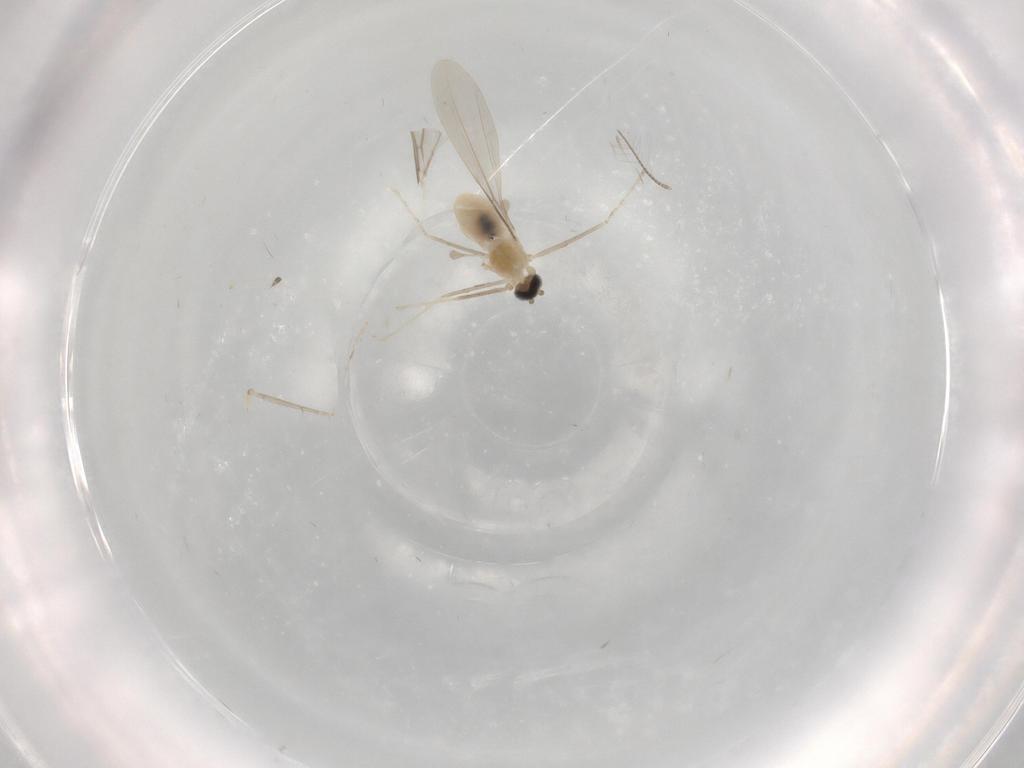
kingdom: Animalia
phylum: Arthropoda
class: Insecta
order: Diptera
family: Cecidomyiidae
